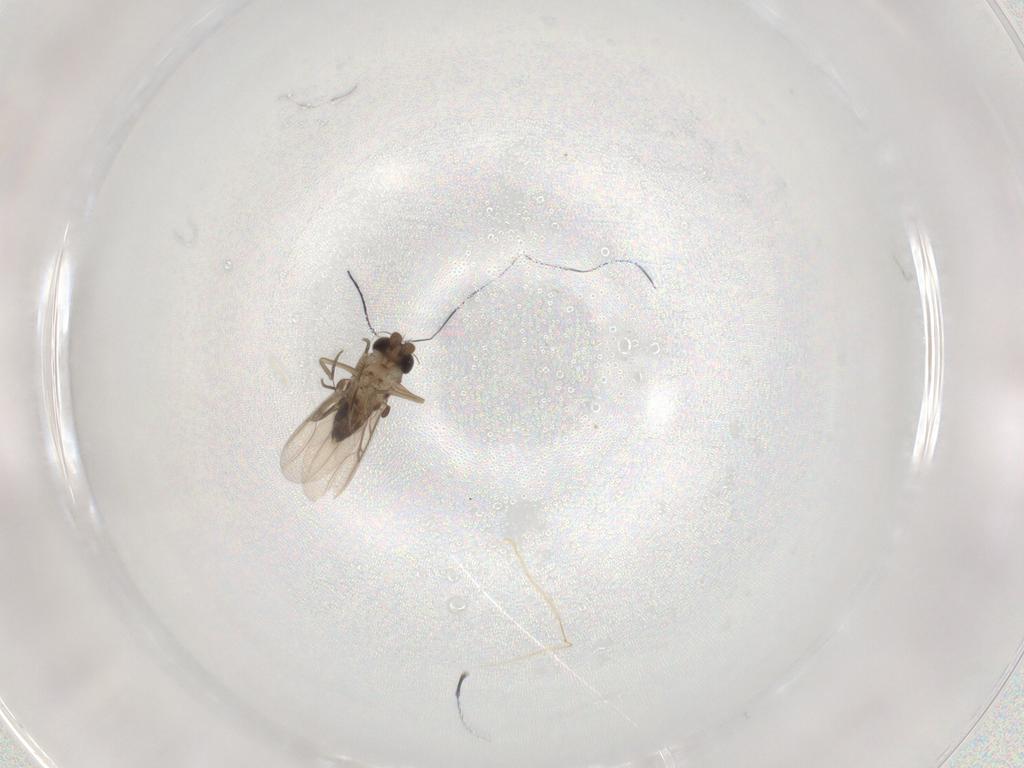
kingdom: Animalia
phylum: Arthropoda
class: Insecta
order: Diptera
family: Phoridae
